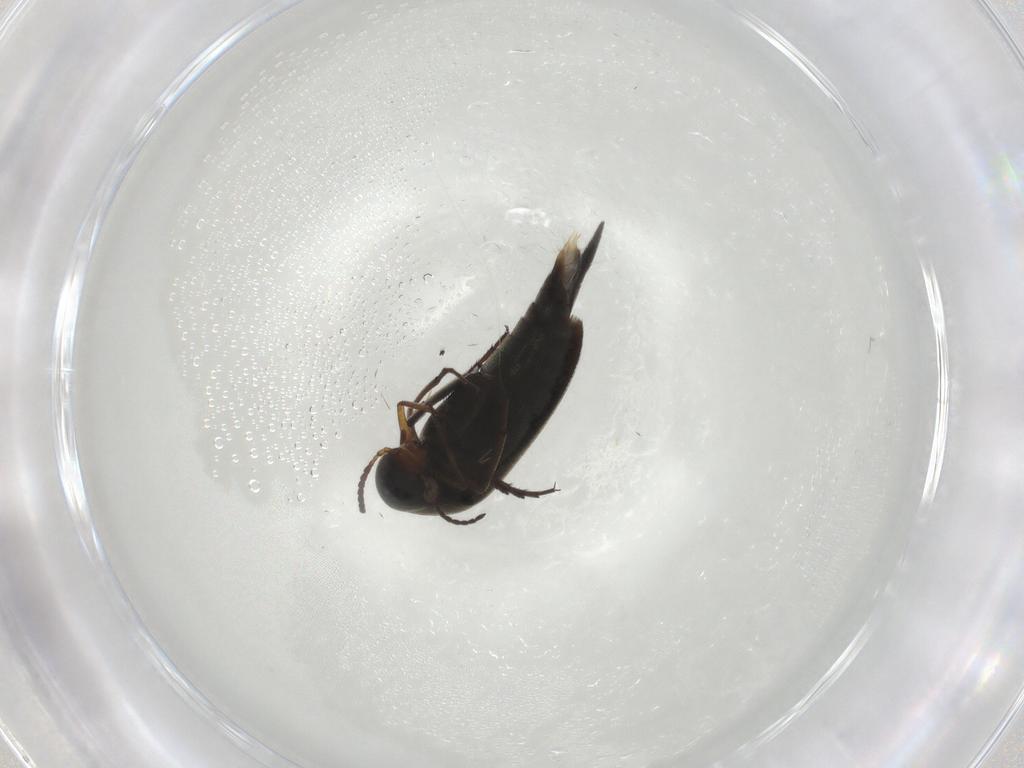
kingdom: Animalia
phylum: Arthropoda
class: Insecta
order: Coleoptera
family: Mordellidae
